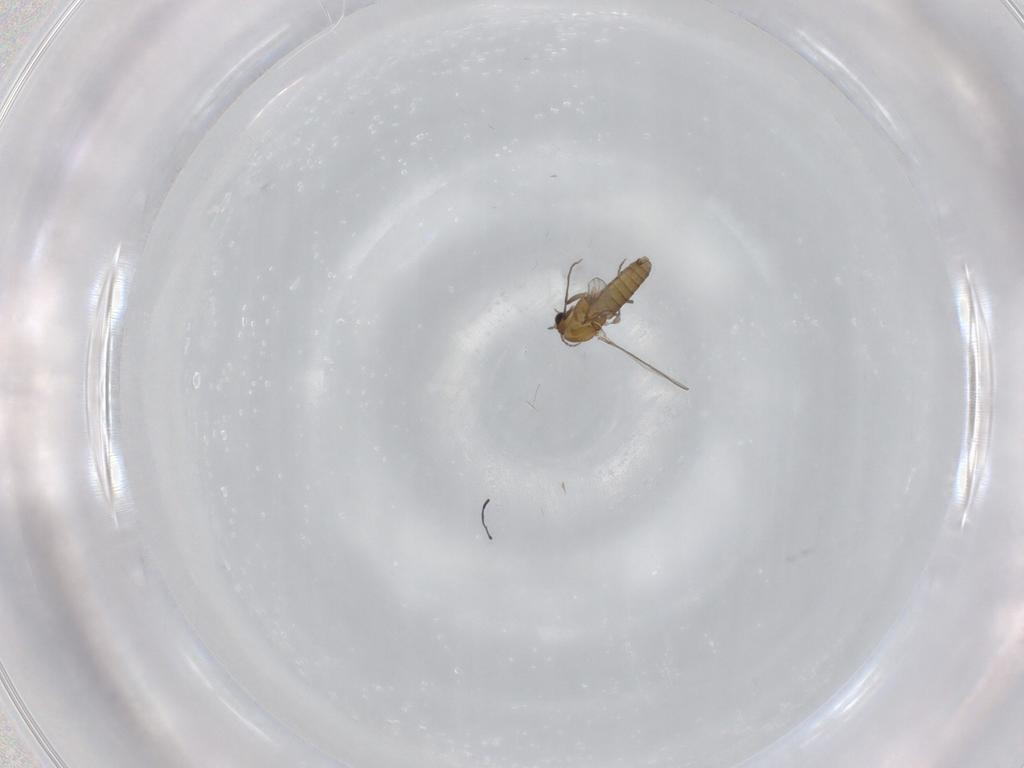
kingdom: Animalia
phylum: Arthropoda
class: Insecta
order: Diptera
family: Chironomidae
